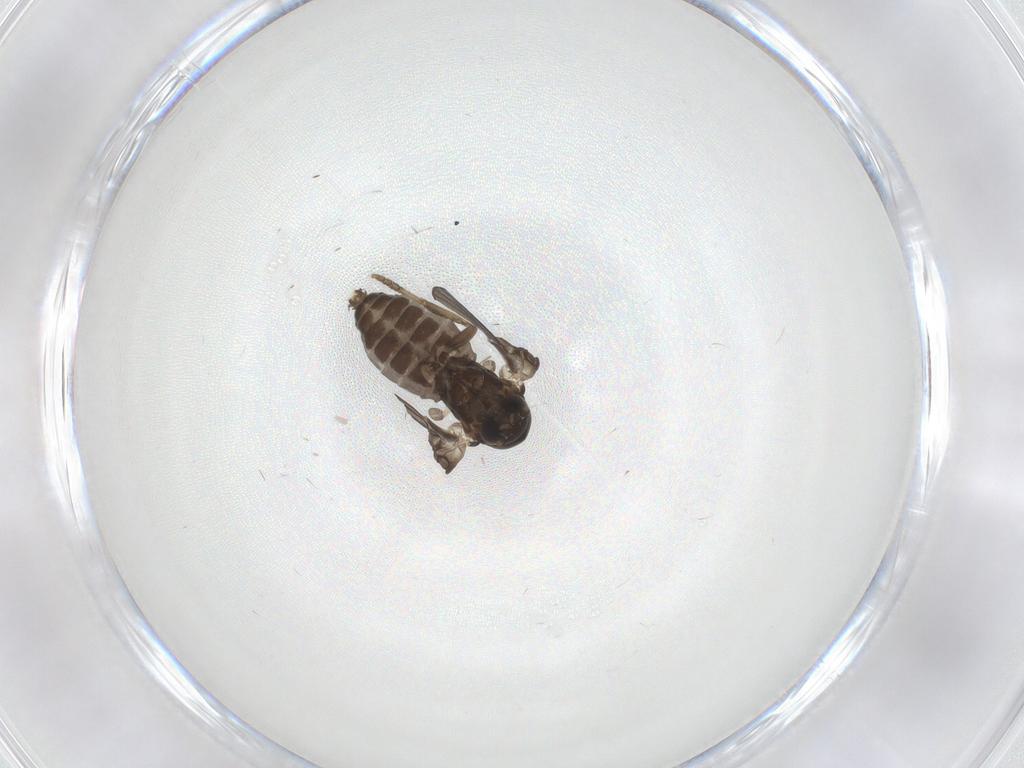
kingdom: Animalia
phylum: Arthropoda
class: Insecta
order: Diptera
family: Psychodidae
